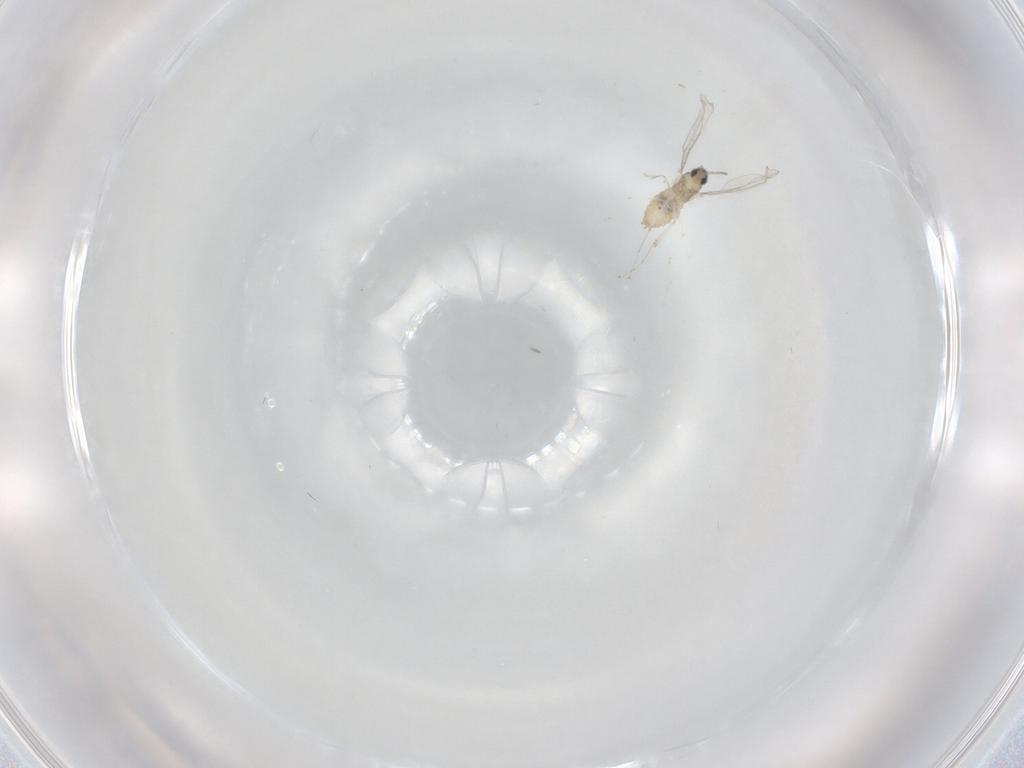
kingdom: Animalia
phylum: Arthropoda
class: Insecta
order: Diptera
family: Cecidomyiidae
